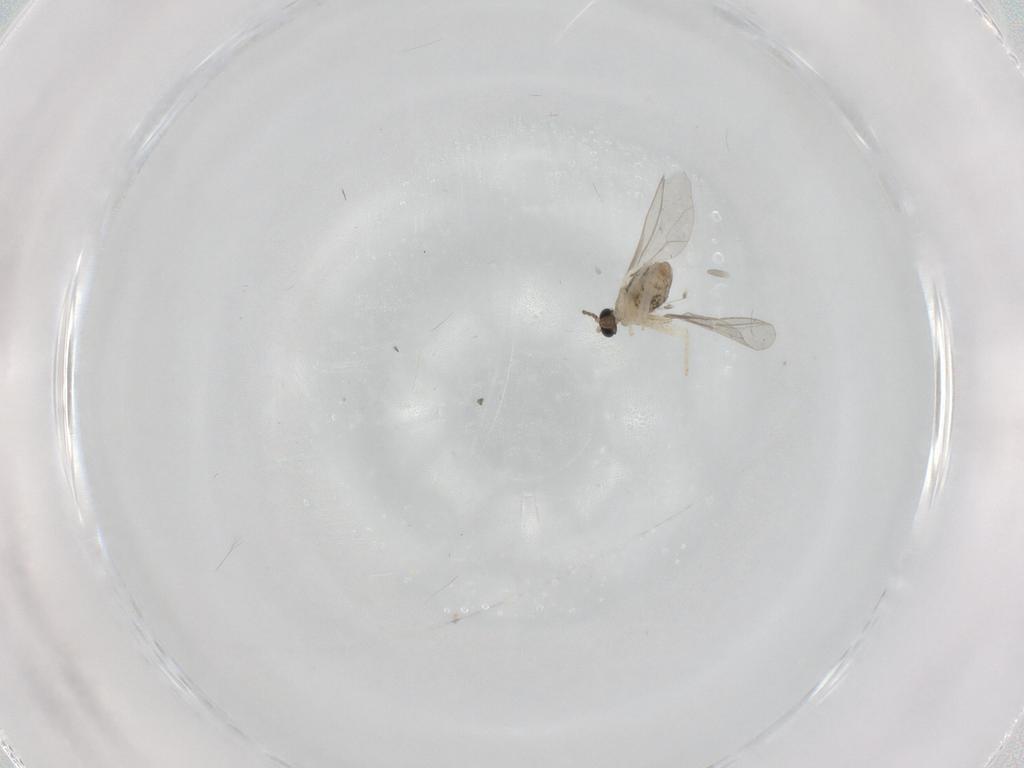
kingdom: Animalia
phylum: Arthropoda
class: Insecta
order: Diptera
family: Cecidomyiidae
